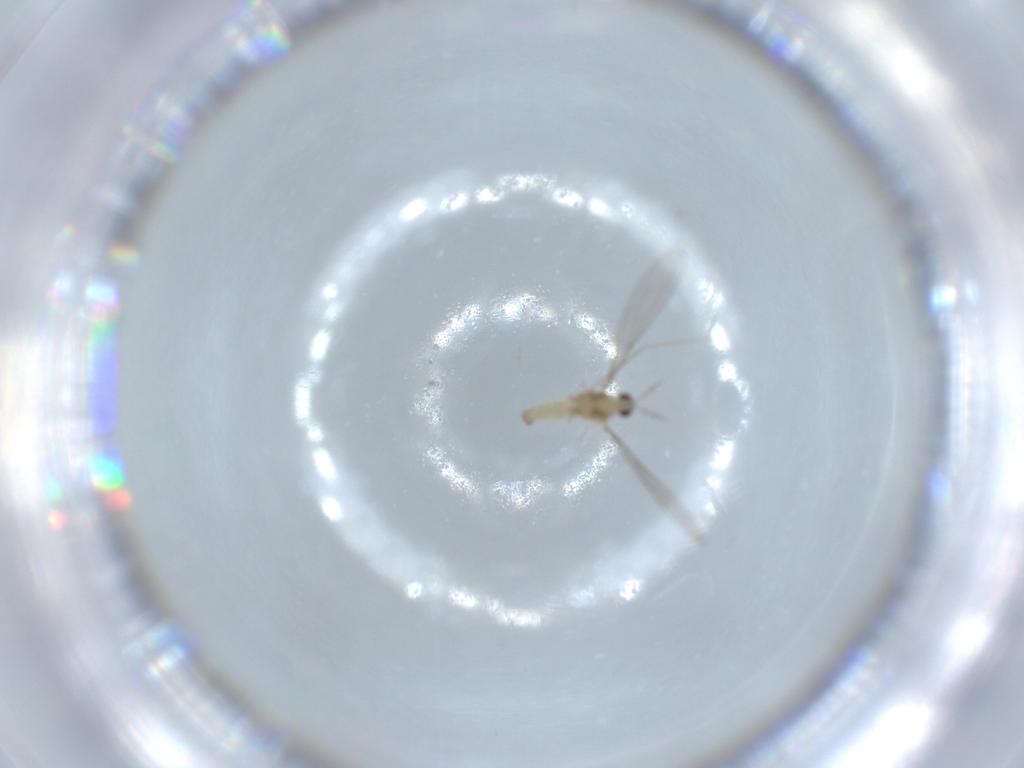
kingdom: Animalia
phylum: Arthropoda
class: Insecta
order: Diptera
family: Cecidomyiidae
